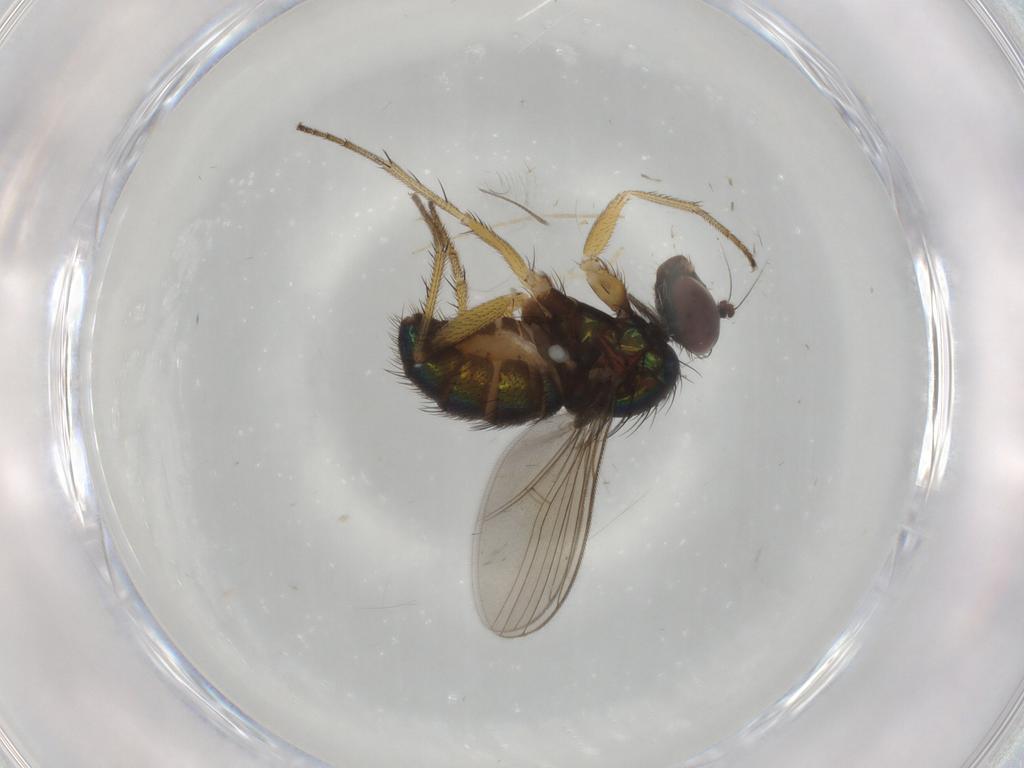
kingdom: Animalia
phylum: Arthropoda
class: Insecta
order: Diptera
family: Dolichopodidae
